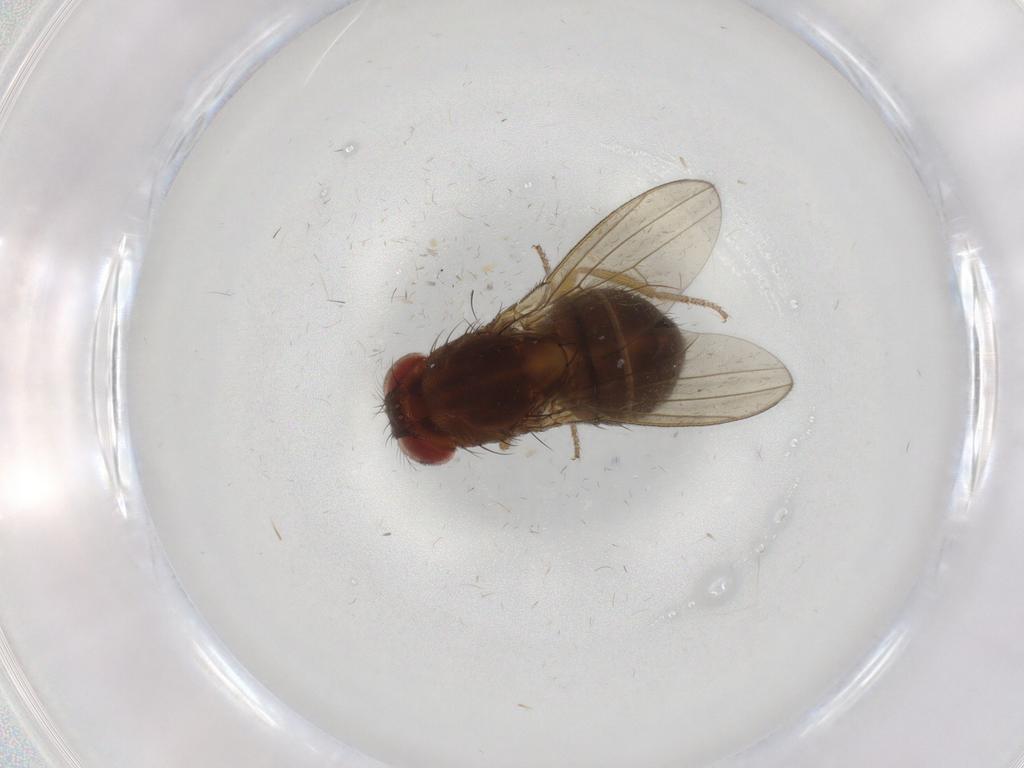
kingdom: Animalia
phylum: Arthropoda
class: Insecta
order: Diptera
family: Drosophilidae
